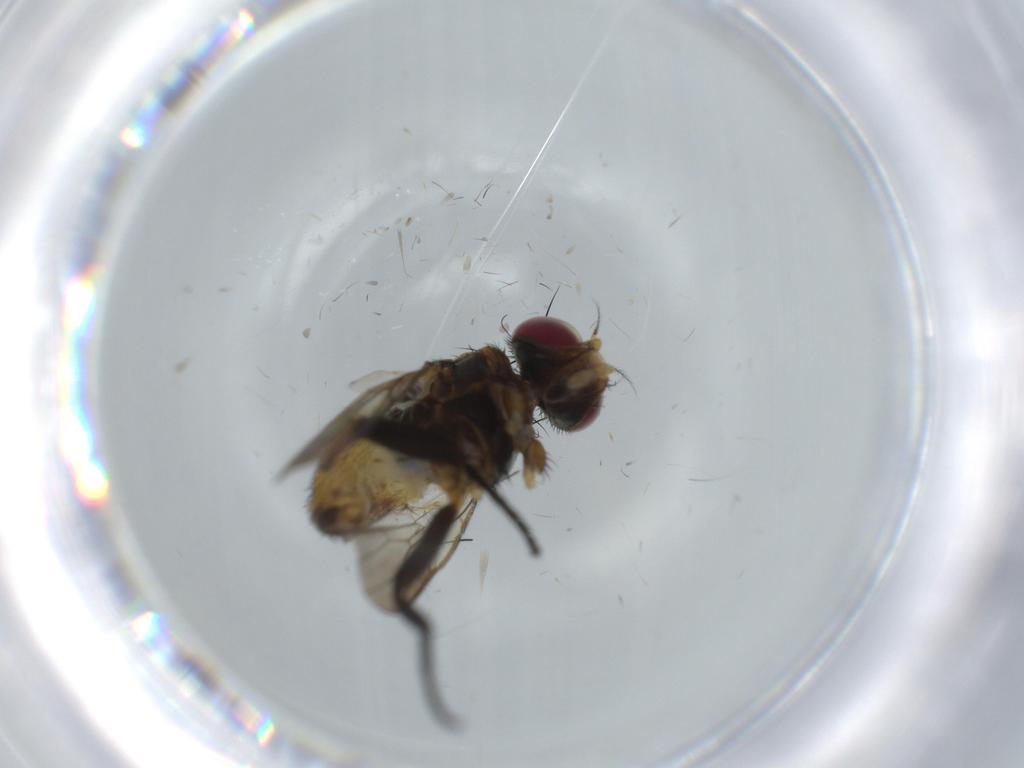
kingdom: Animalia
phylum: Arthropoda
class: Insecta
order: Diptera
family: Anthomyiidae
